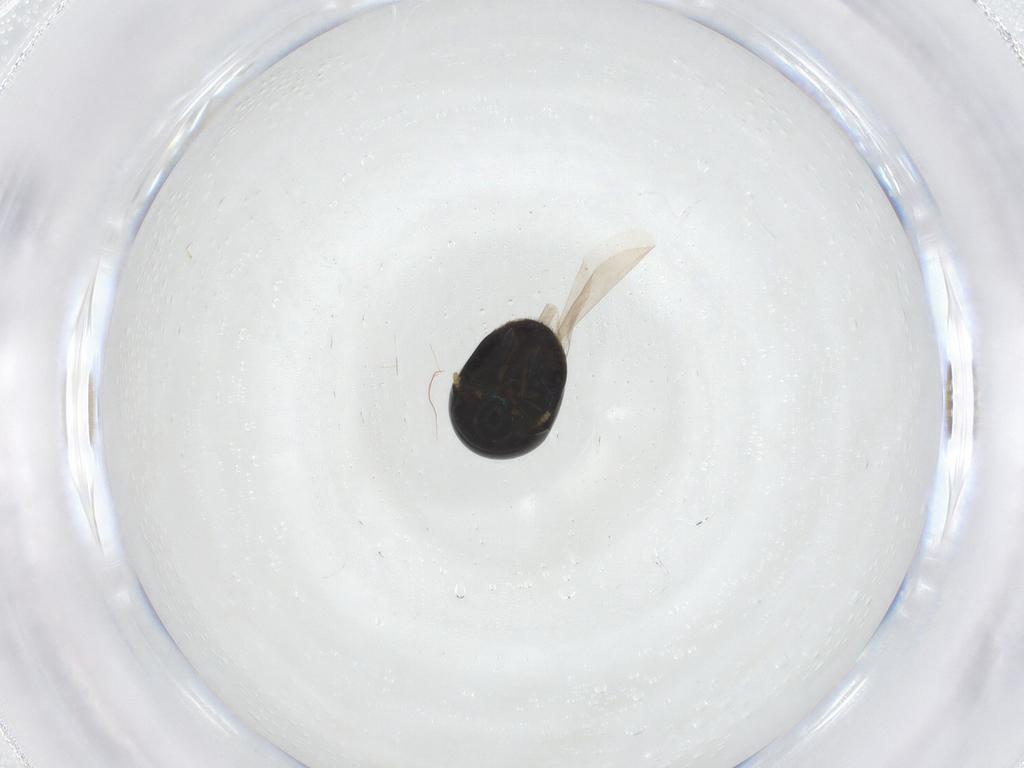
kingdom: Animalia
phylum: Arthropoda
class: Insecta
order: Coleoptera
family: Cybocephalidae
